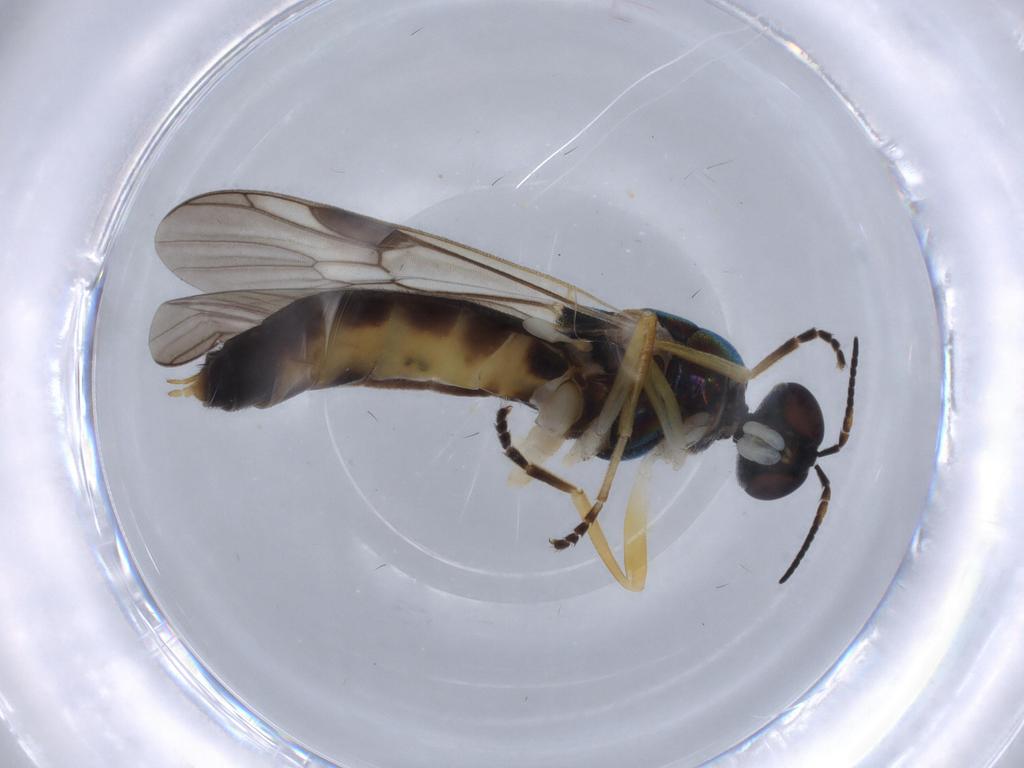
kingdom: Animalia
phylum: Arthropoda
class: Insecta
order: Diptera
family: Stratiomyidae
